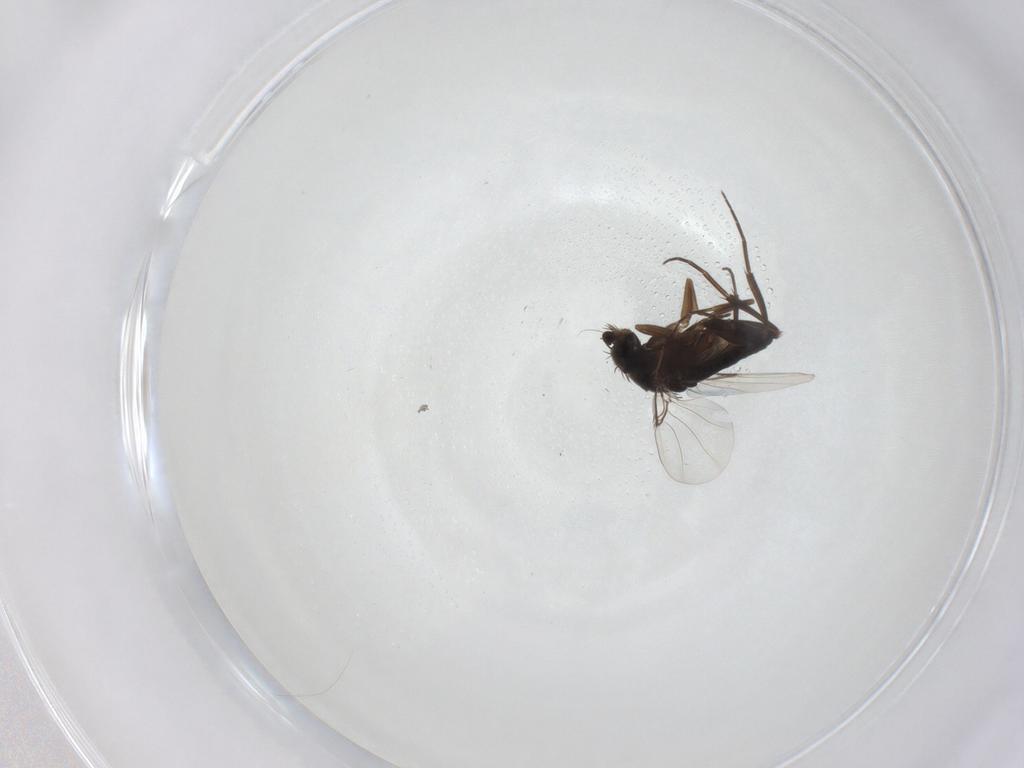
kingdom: Animalia
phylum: Arthropoda
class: Insecta
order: Diptera
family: Phoridae
